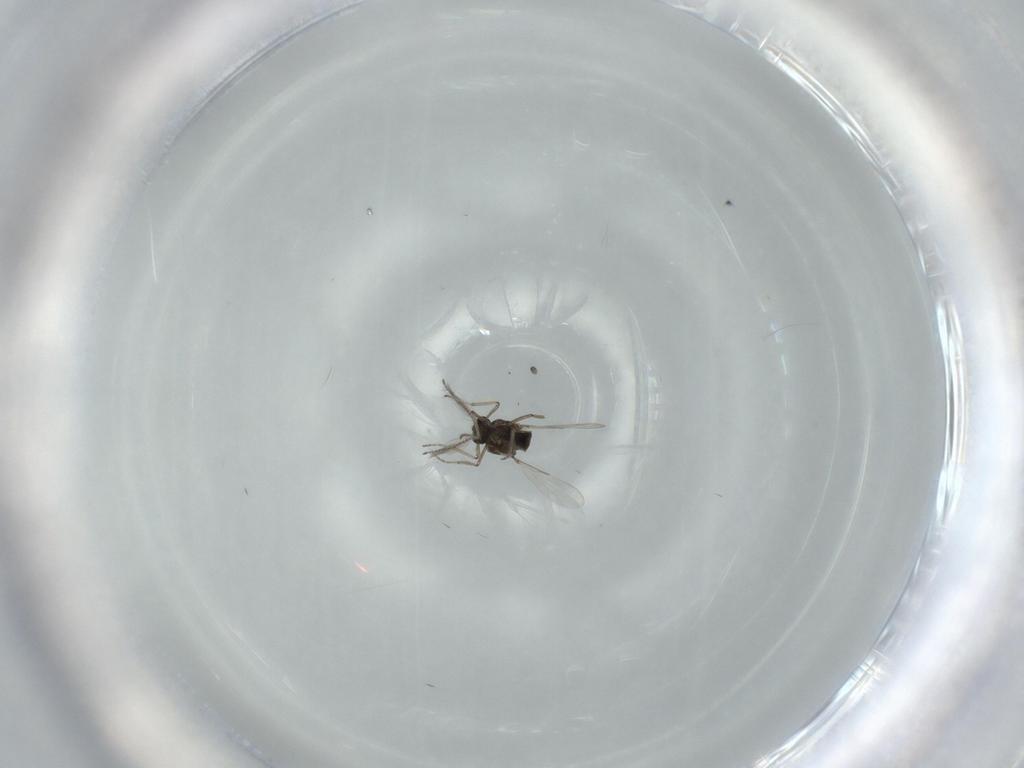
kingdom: Animalia
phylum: Arthropoda
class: Insecta
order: Diptera
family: Ceratopogonidae
